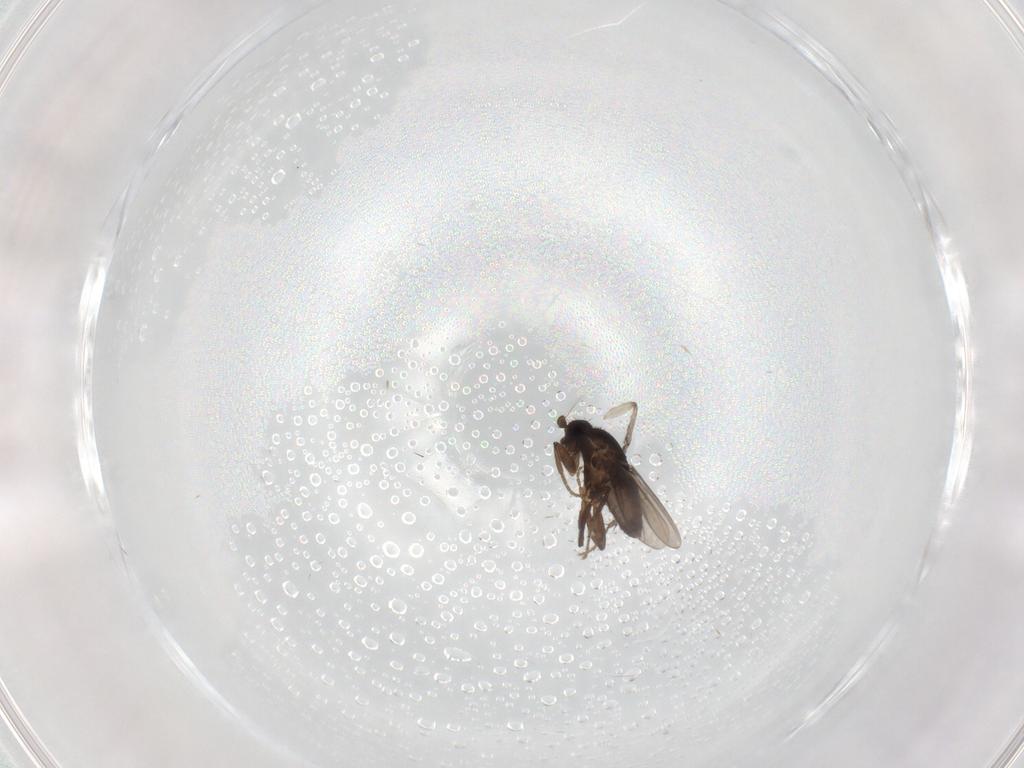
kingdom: Animalia
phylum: Arthropoda
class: Insecta
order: Diptera
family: Psychodidae
